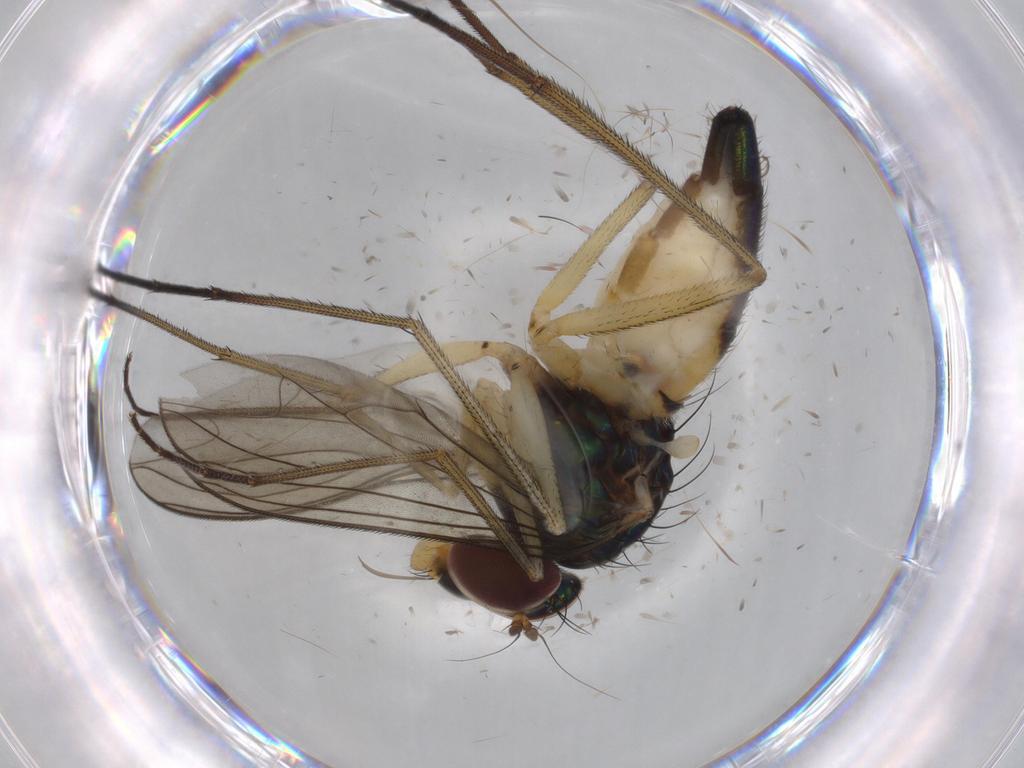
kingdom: Animalia
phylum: Arthropoda
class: Insecta
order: Diptera
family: Dolichopodidae
